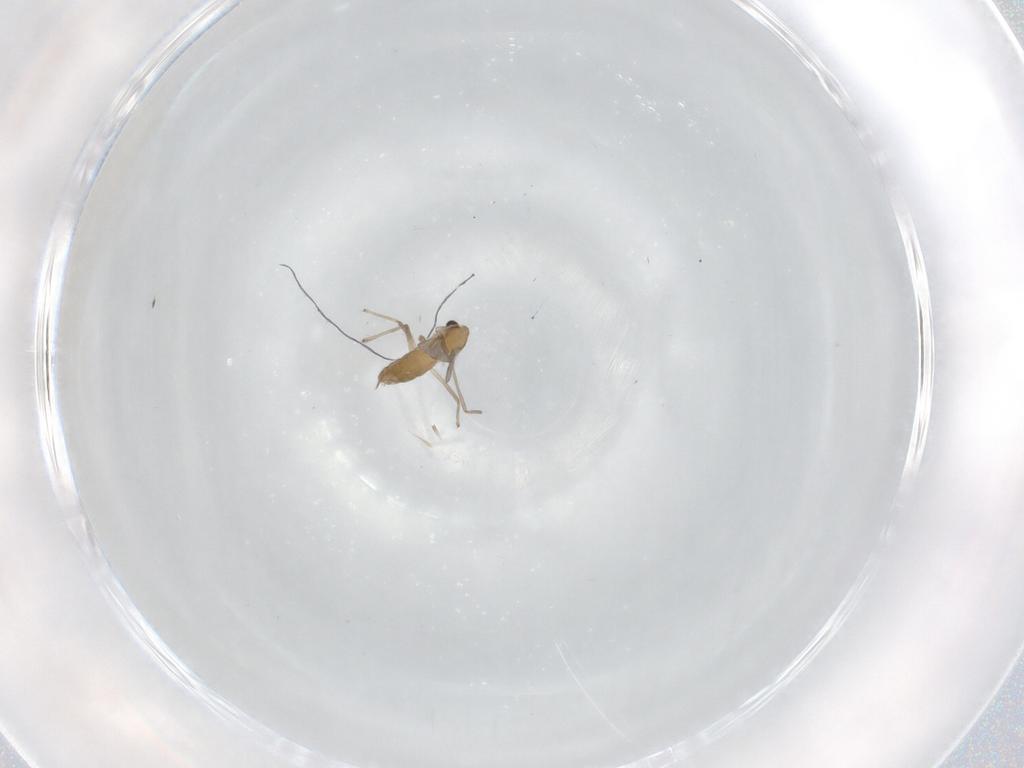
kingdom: Animalia
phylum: Arthropoda
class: Insecta
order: Diptera
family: Chironomidae
